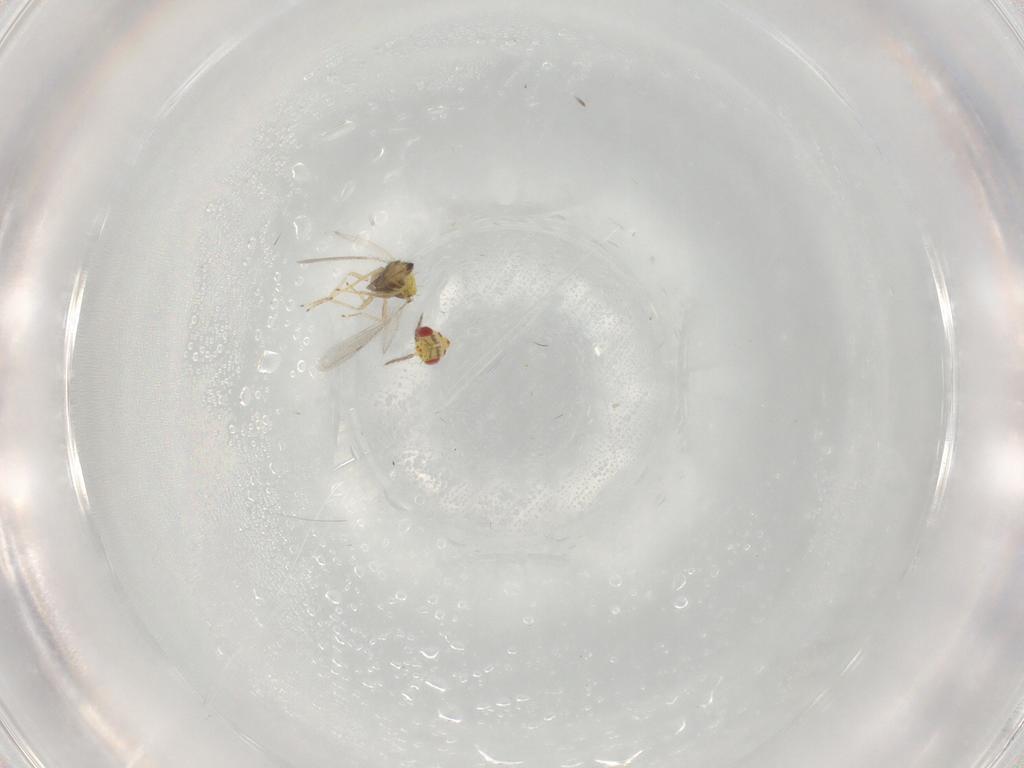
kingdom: Animalia
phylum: Arthropoda
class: Insecta
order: Hymenoptera
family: Eulophidae
